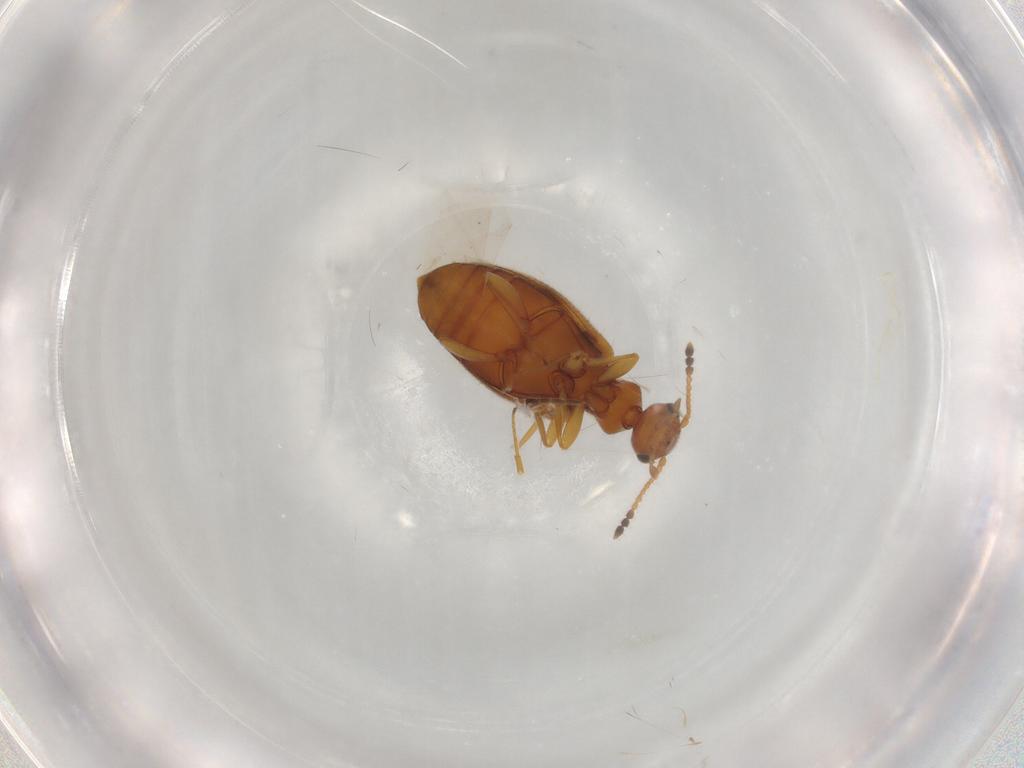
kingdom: Animalia
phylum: Arthropoda
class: Insecta
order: Coleoptera
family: Anthicidae
